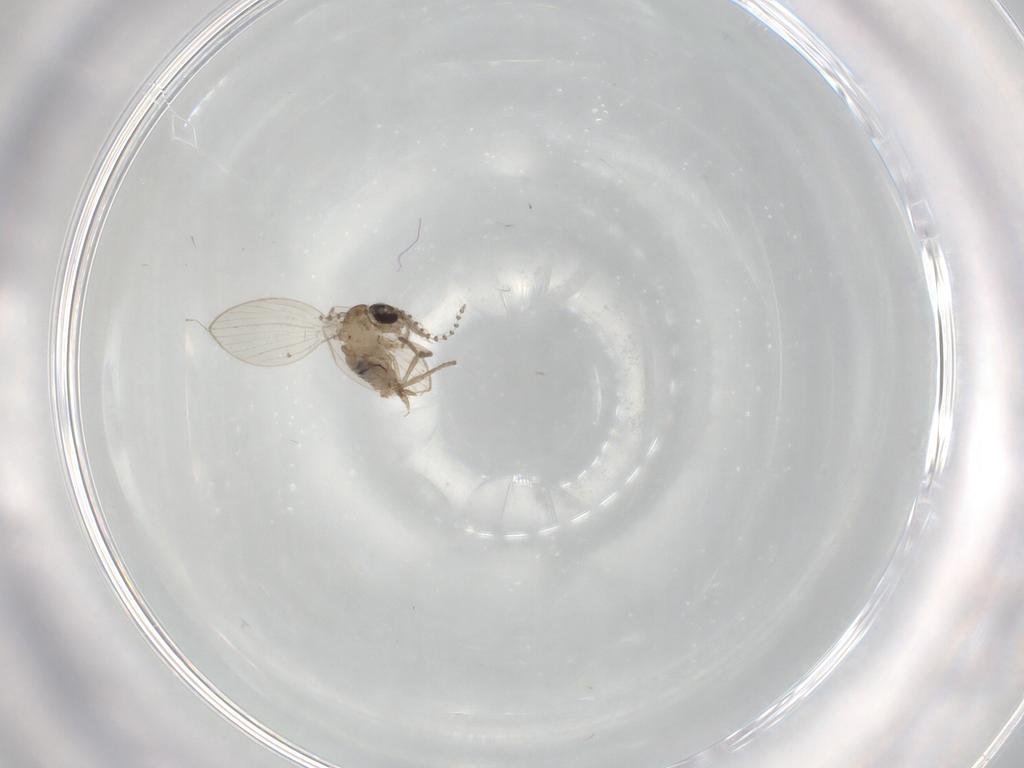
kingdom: Animalia
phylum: Arthropoda
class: Insecta
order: Diptera
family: Psychodidae
